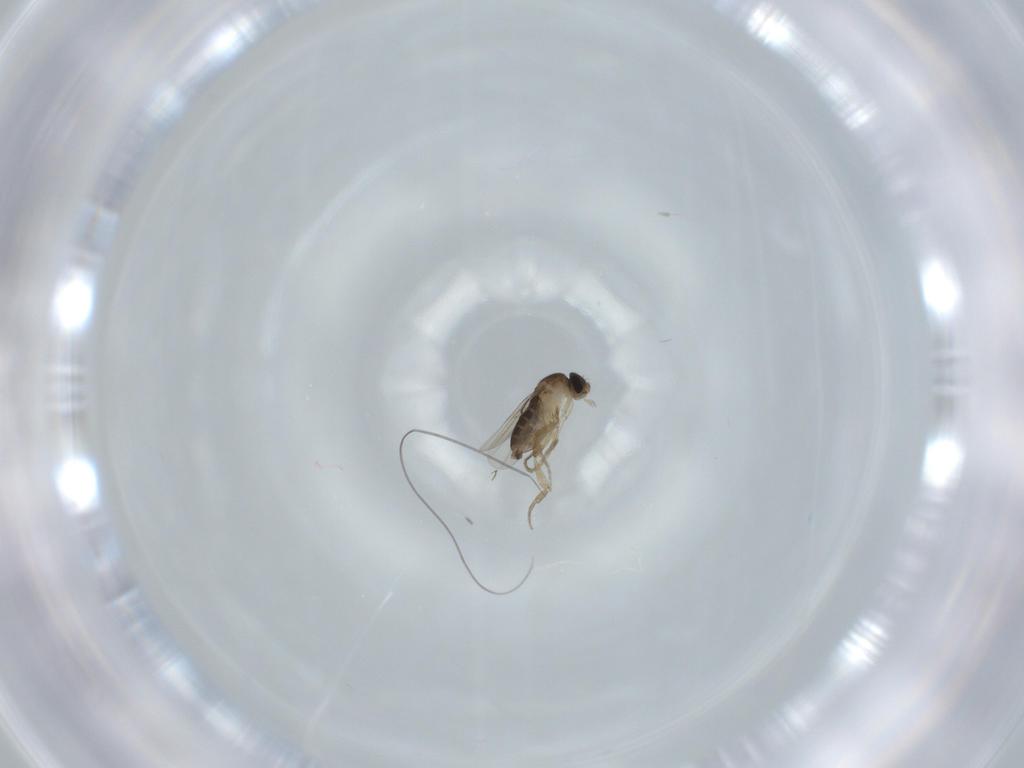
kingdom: Animalia
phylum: Arthropoda
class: Insecta
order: Diptera
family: Phoridae
